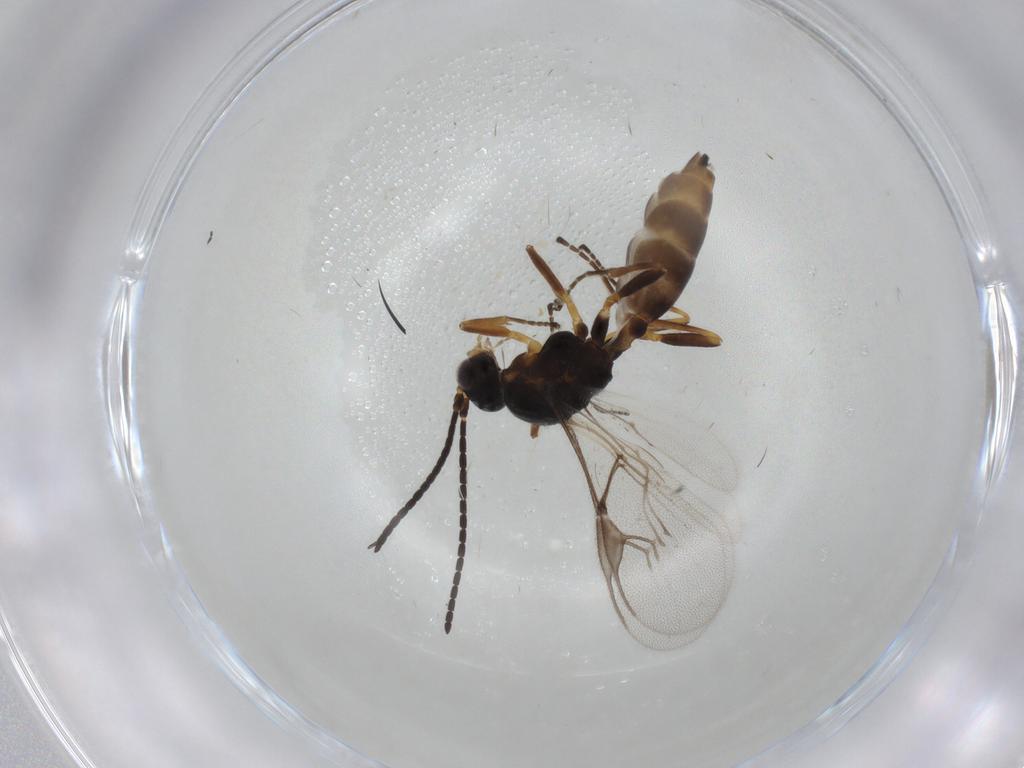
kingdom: Animalia
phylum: Arthropoda
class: Insecta
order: Hymenoptera
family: Braconidae
